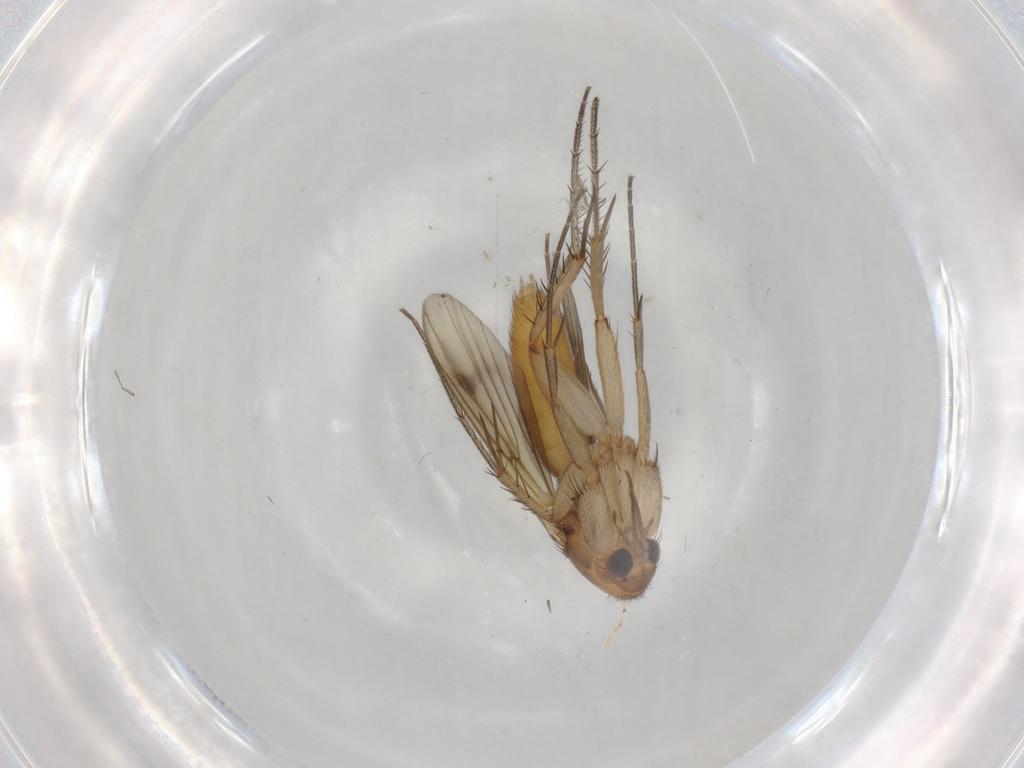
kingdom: Animalia
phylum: Arthropoda
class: Insecta
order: Diptera
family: Mycetophilidae
